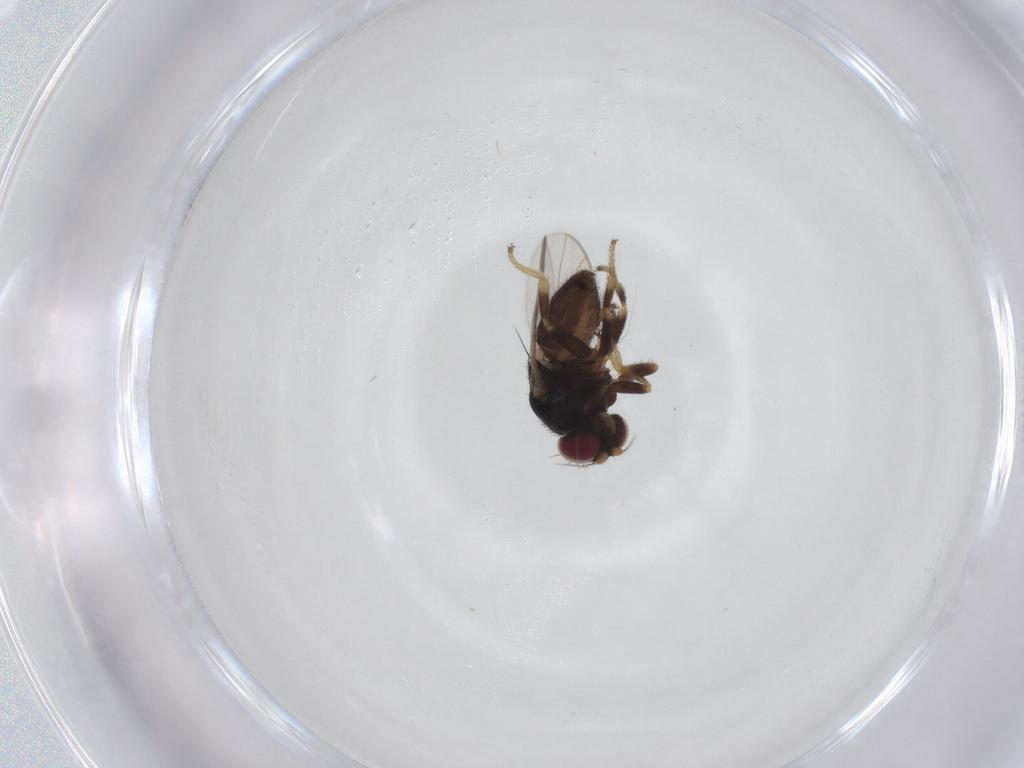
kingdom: Animalia
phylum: Arthropoda
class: Insecta
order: Diptera
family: Chloropidae
